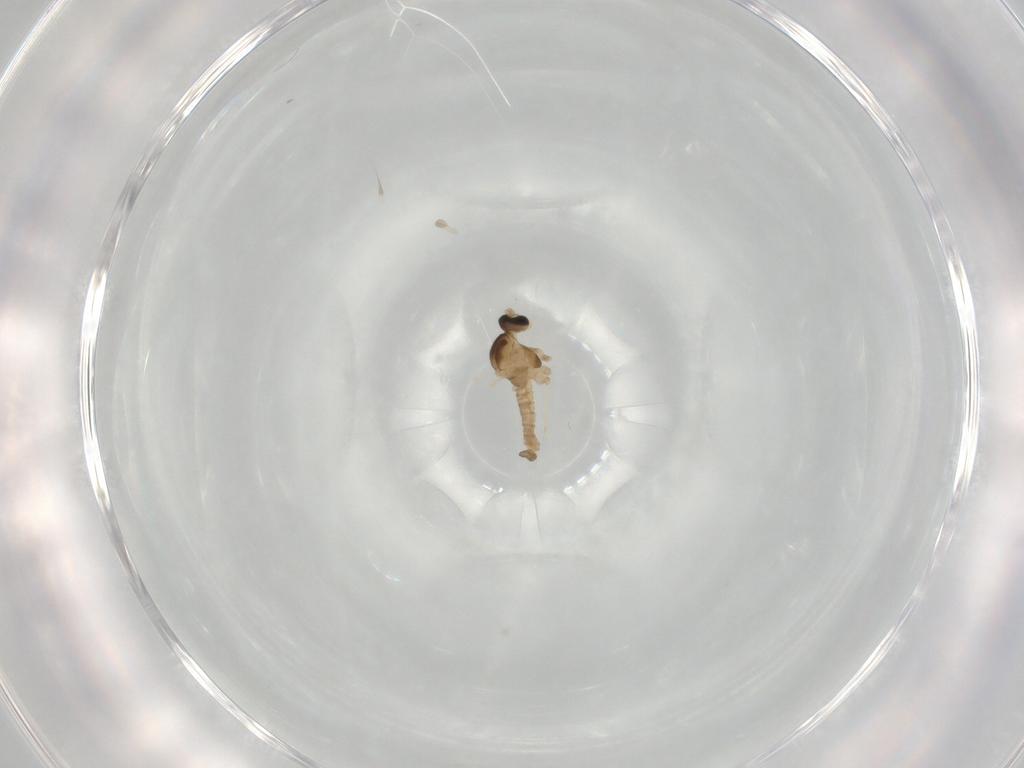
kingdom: Animalia
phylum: Arthropoda
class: Insecta
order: Diptera
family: Cecidomyiidae
